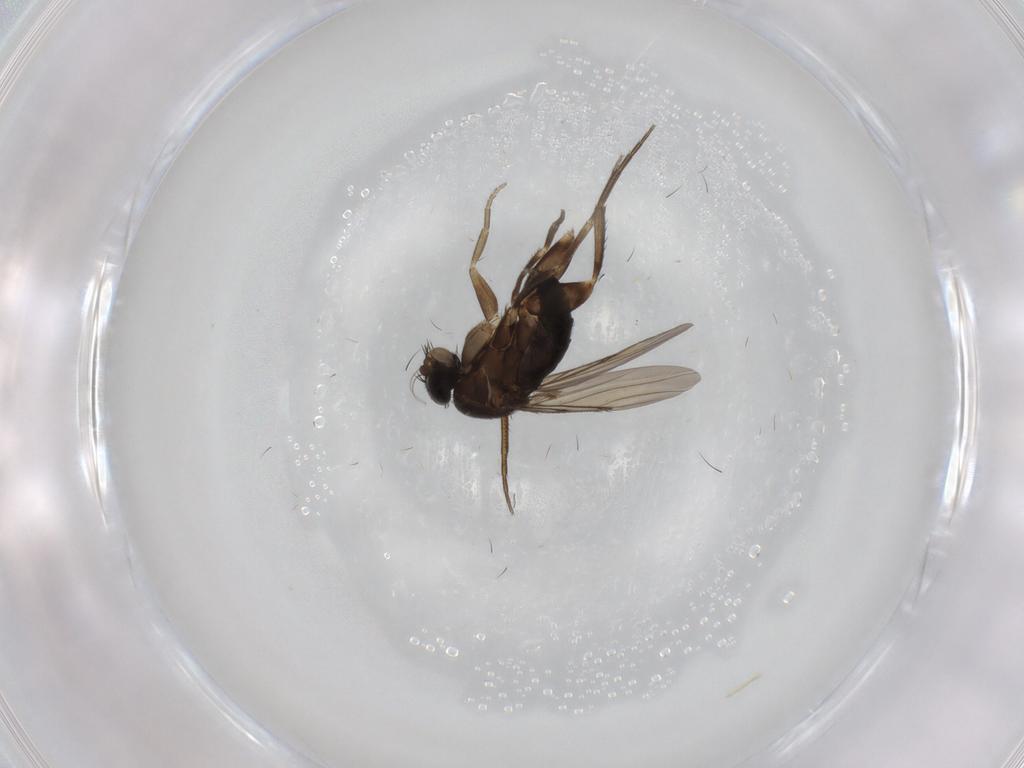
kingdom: Animalia
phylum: Arthropoda
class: Insecta
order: Diptera
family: Phoridae
